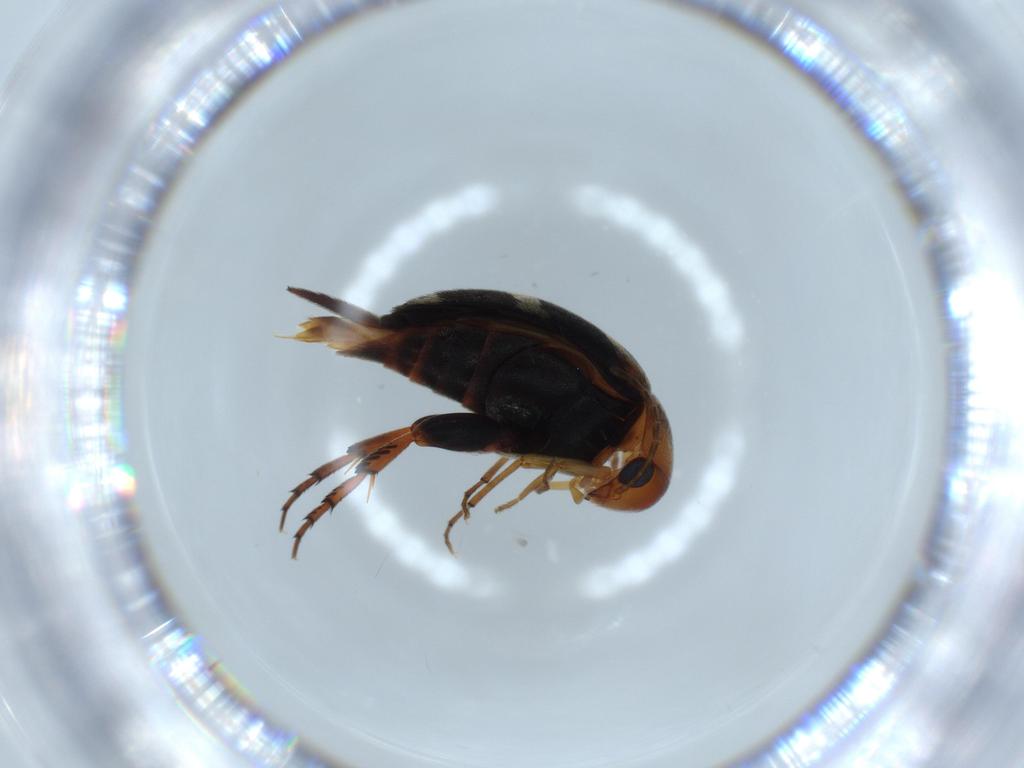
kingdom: Animalia
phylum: Arthropoda
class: Insecta
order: Coleoptera
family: Mordellidae
